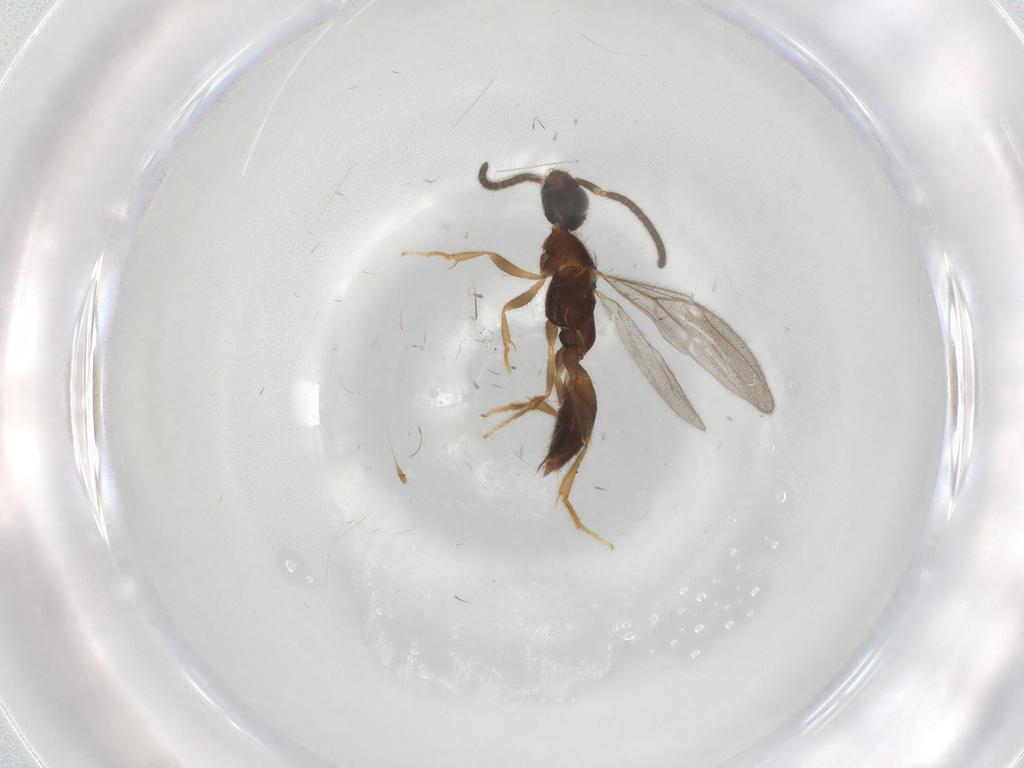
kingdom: Animalia
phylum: Arthropoda
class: Insecta
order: Hymenoptera
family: Bethylidae
